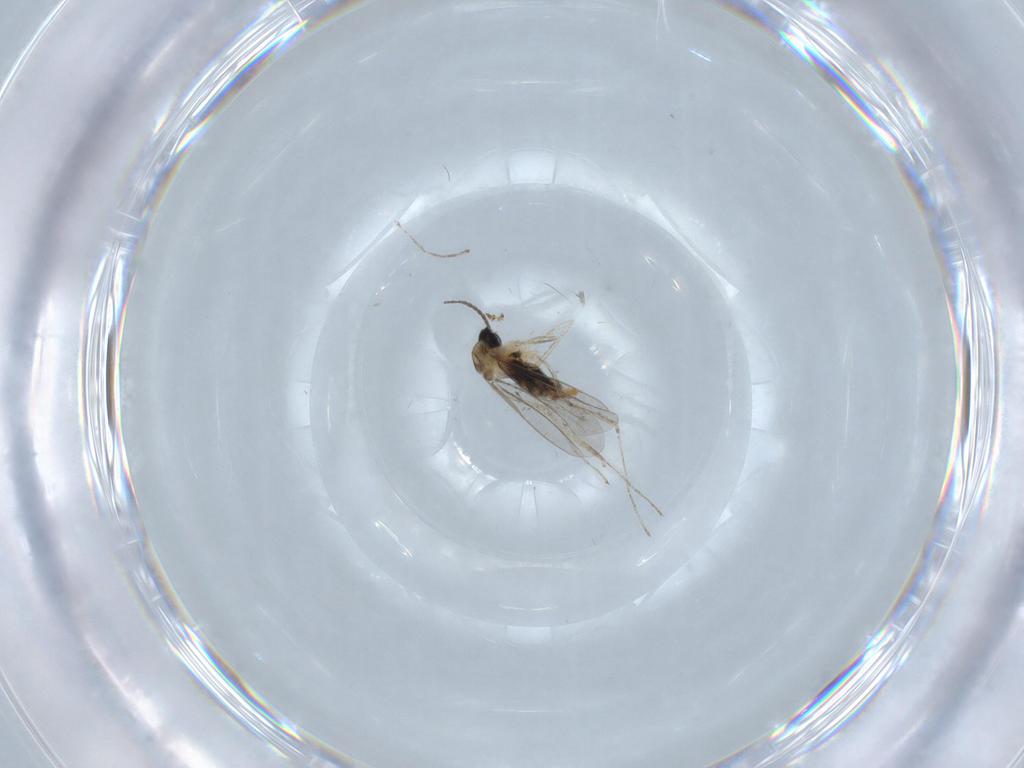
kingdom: Animalia
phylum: Arthropoda
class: Insecta
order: Diptera
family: Cecidomyiidae
